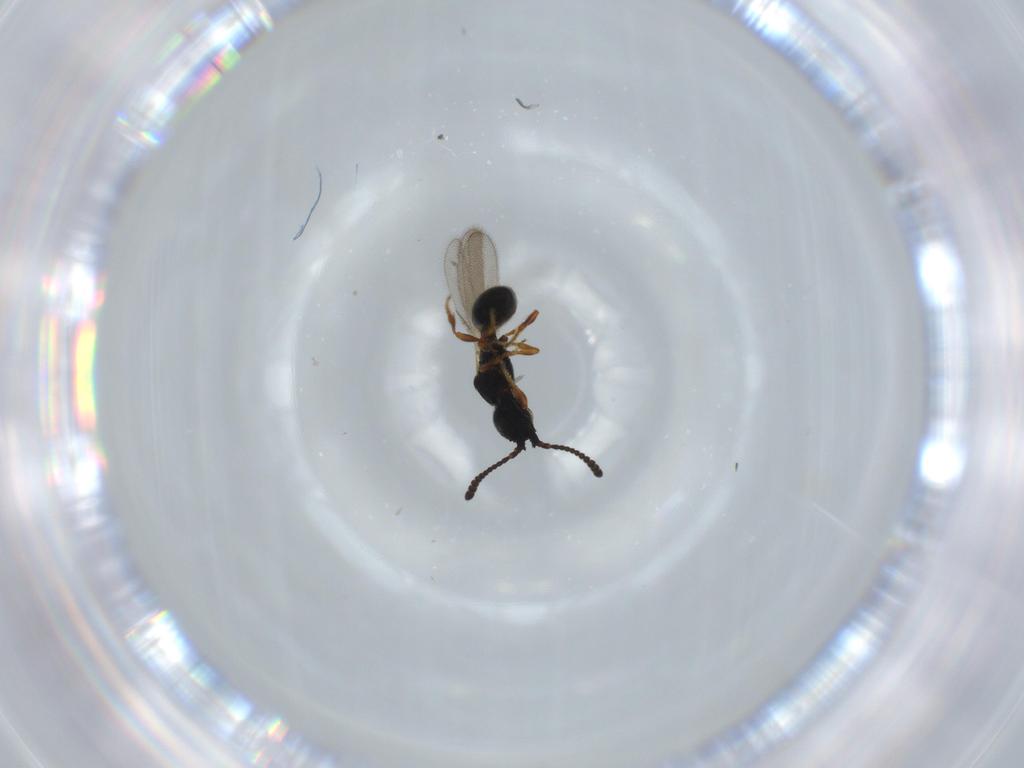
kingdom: Animalia
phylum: Arthropoda
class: Insecta
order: Hymenoptera
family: Diapriidae
